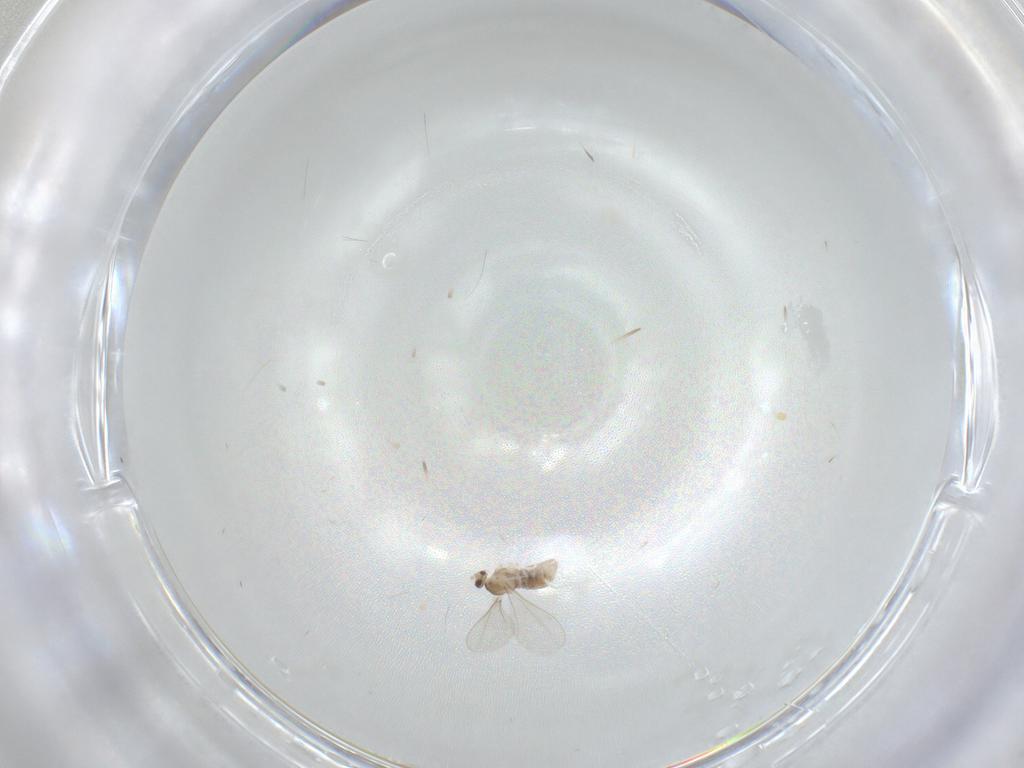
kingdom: Animalia
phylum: Arthropoda
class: Insecta
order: Diptera
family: Cecidomyiidae
